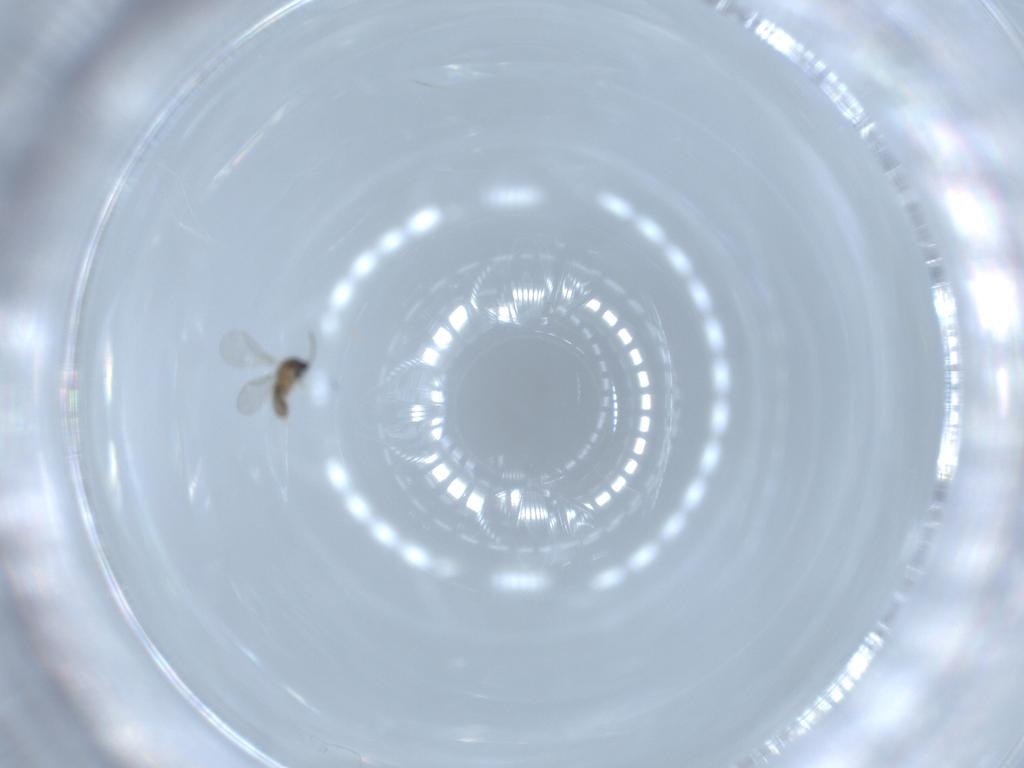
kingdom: Animalia
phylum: Arthropoda
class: Insecta
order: Diptera
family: Cecidomyiidae
